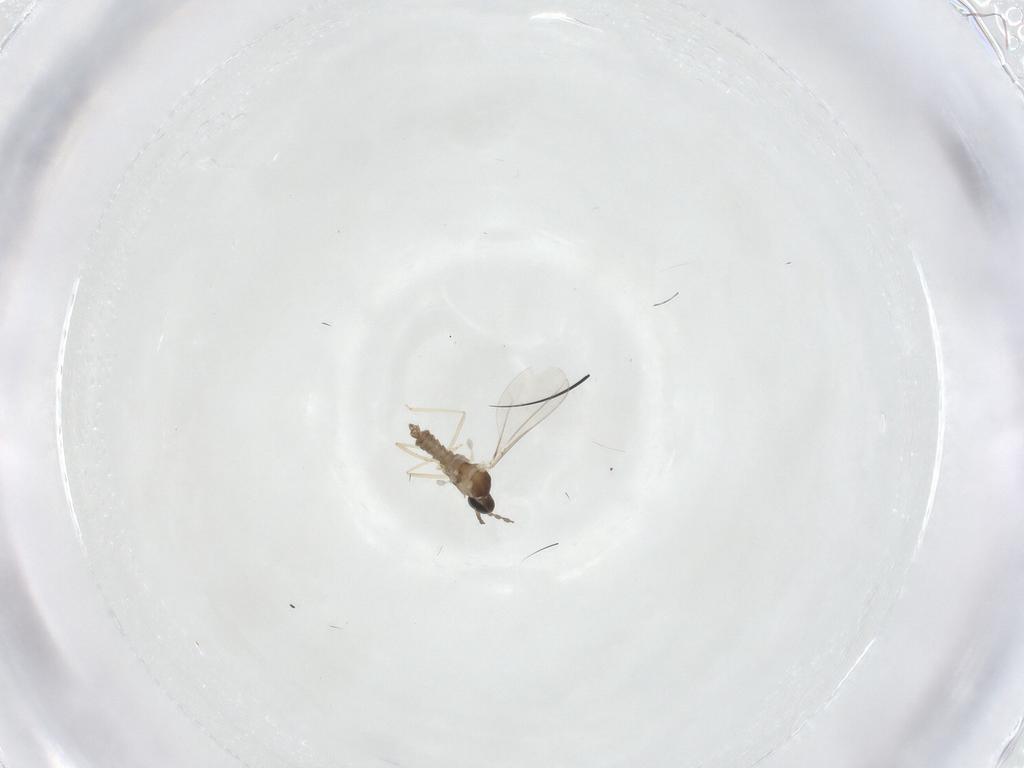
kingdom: Animalia
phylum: Arthropoda
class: Insecta
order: Diptera
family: Cecidomyiidae
